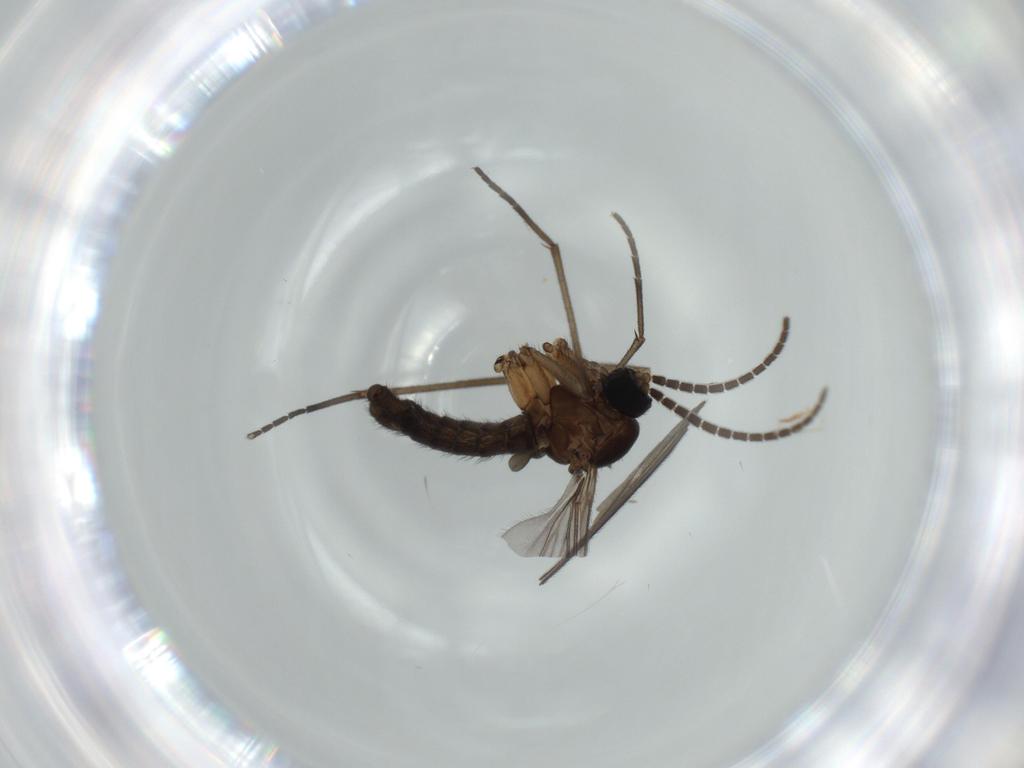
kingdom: Animalia
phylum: Arthropoda
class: Insecta
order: Diptera
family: Sciaridae
